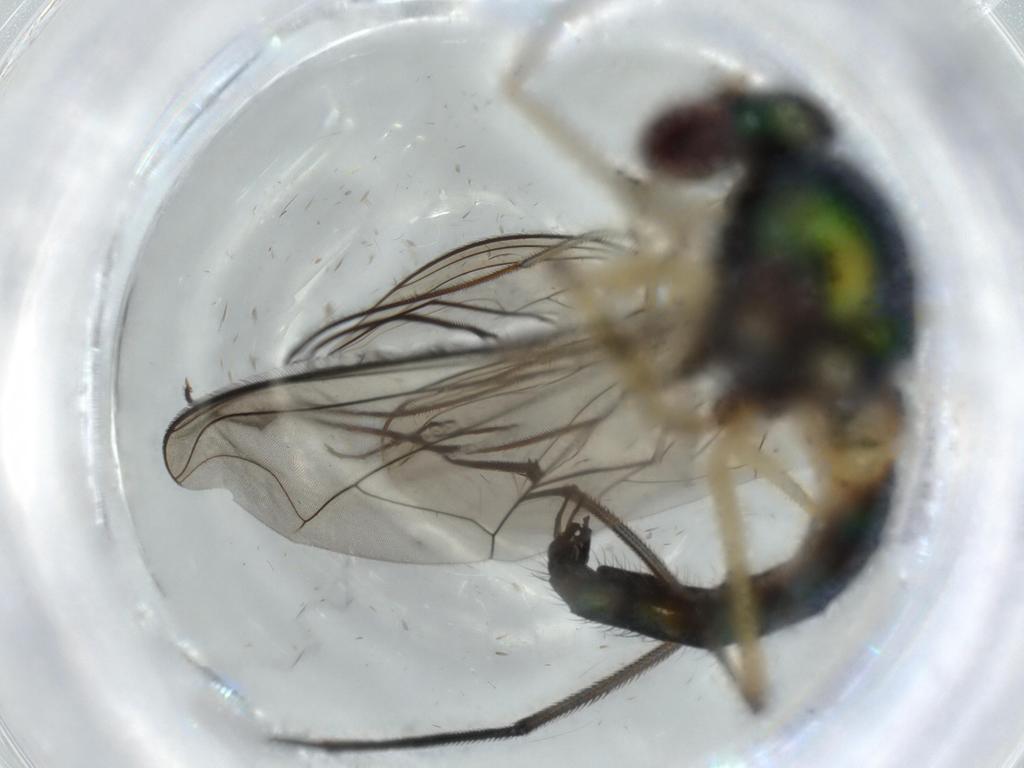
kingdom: Animalia
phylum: Arthropoda
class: Insecta
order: Diptera
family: Dolichopodidae
